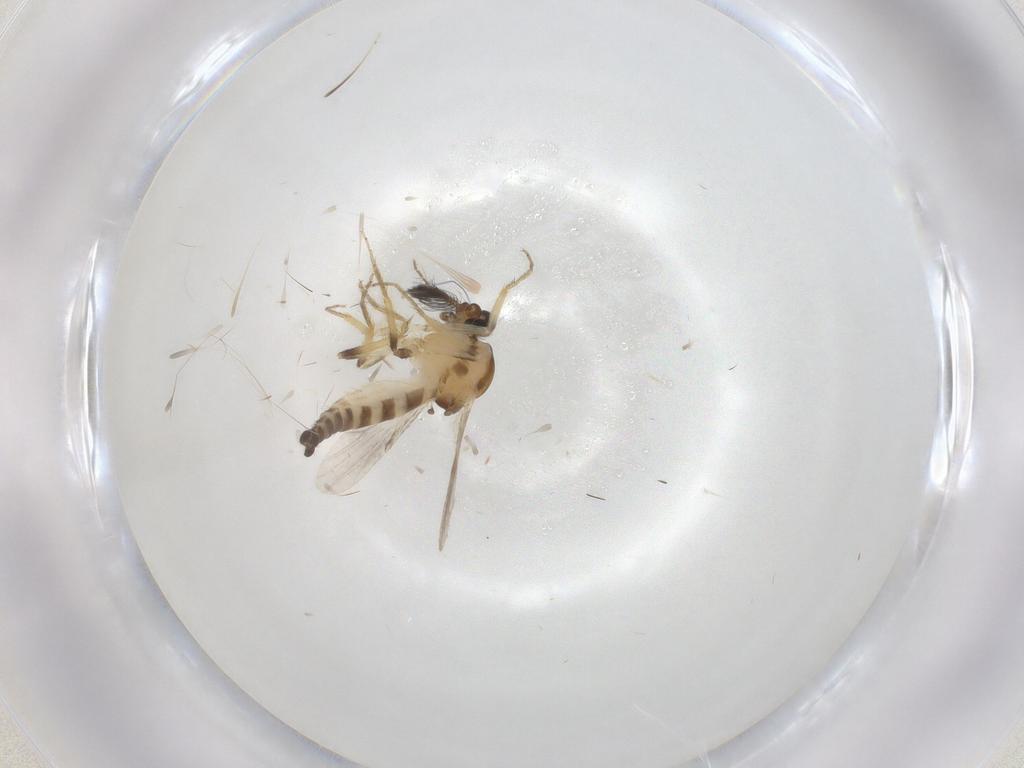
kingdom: Animalia
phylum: Arthropoda
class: Insecta
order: Diptera
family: Ceratopogonidae
